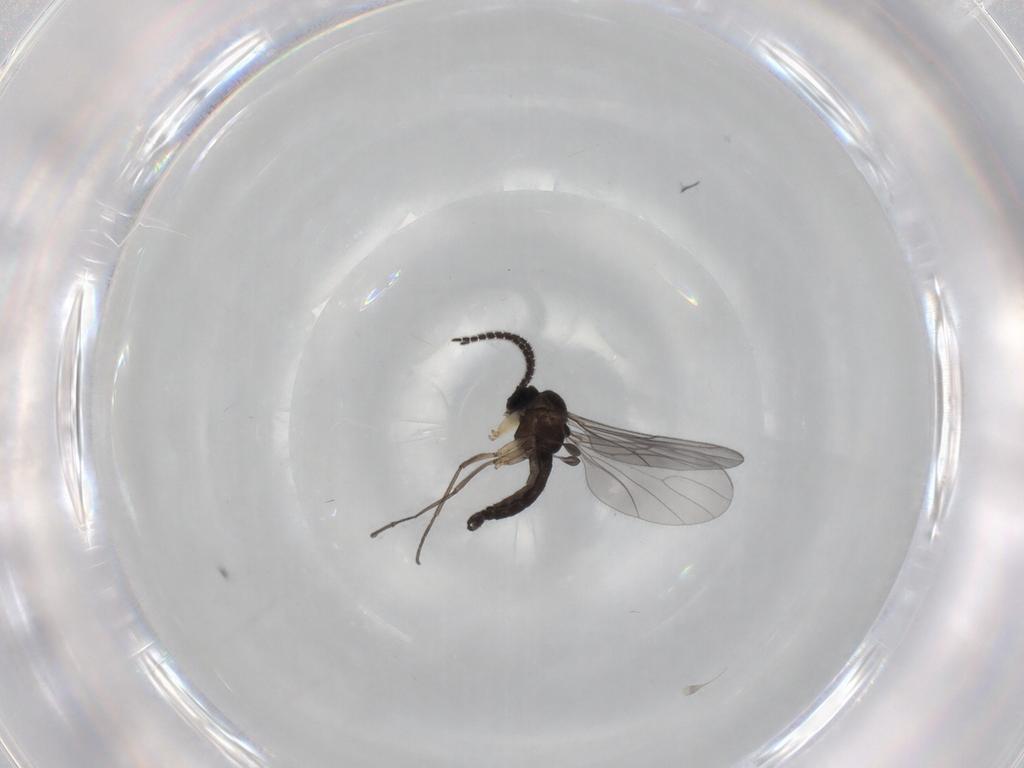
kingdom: Animalia
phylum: Arthropoda
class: Insecta
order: Diptera
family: Sciaridae
